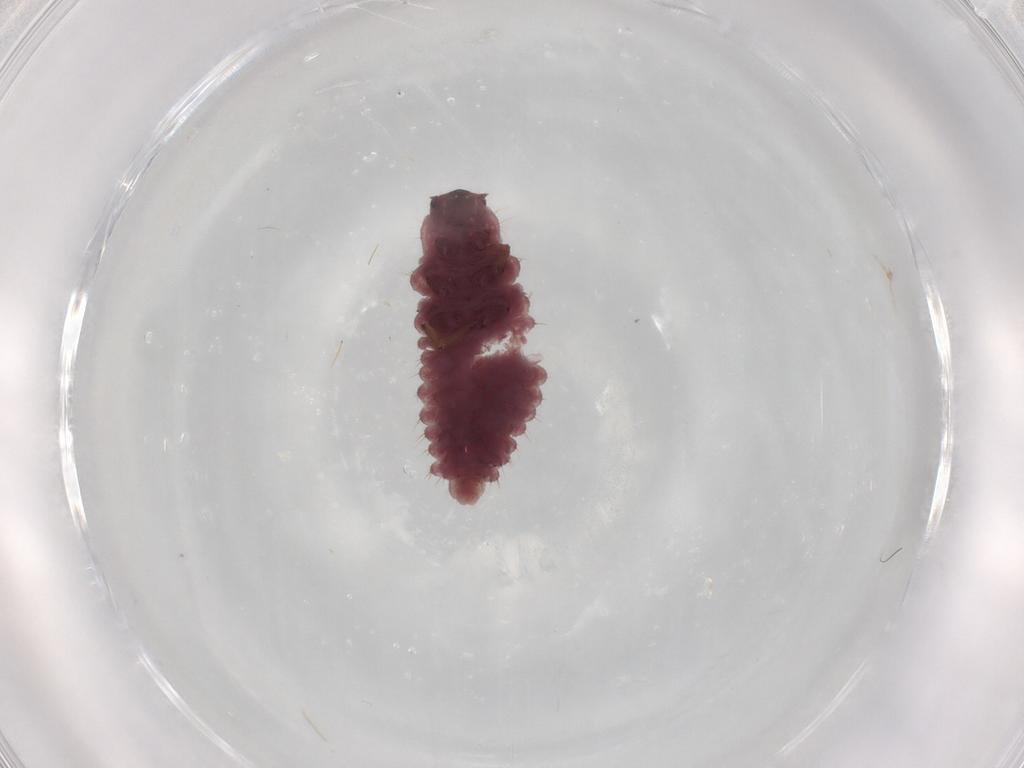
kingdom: Animalia
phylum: Arthropoda
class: Insecta
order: Coleoptera
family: Coccinellidae
